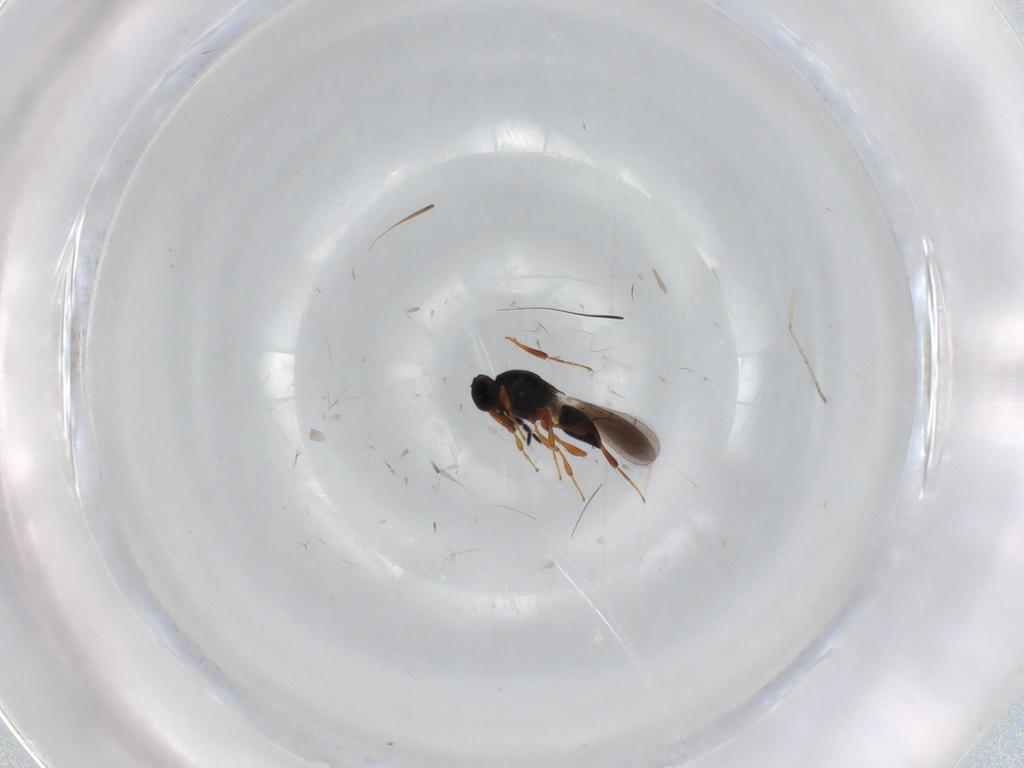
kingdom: Animalia
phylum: Arthropoda
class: Insecta
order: Hymenoptera
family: Platygastridae
